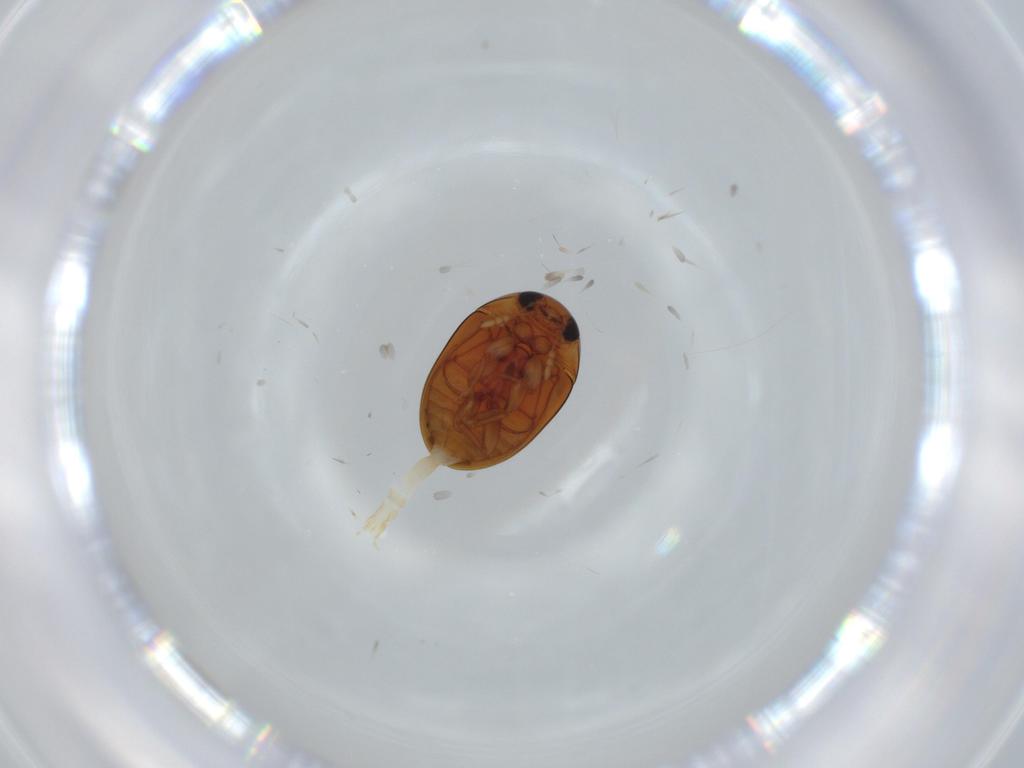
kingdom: Animalia
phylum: Arthropoda
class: Insecta
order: Coleoptera
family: Phalacridae
